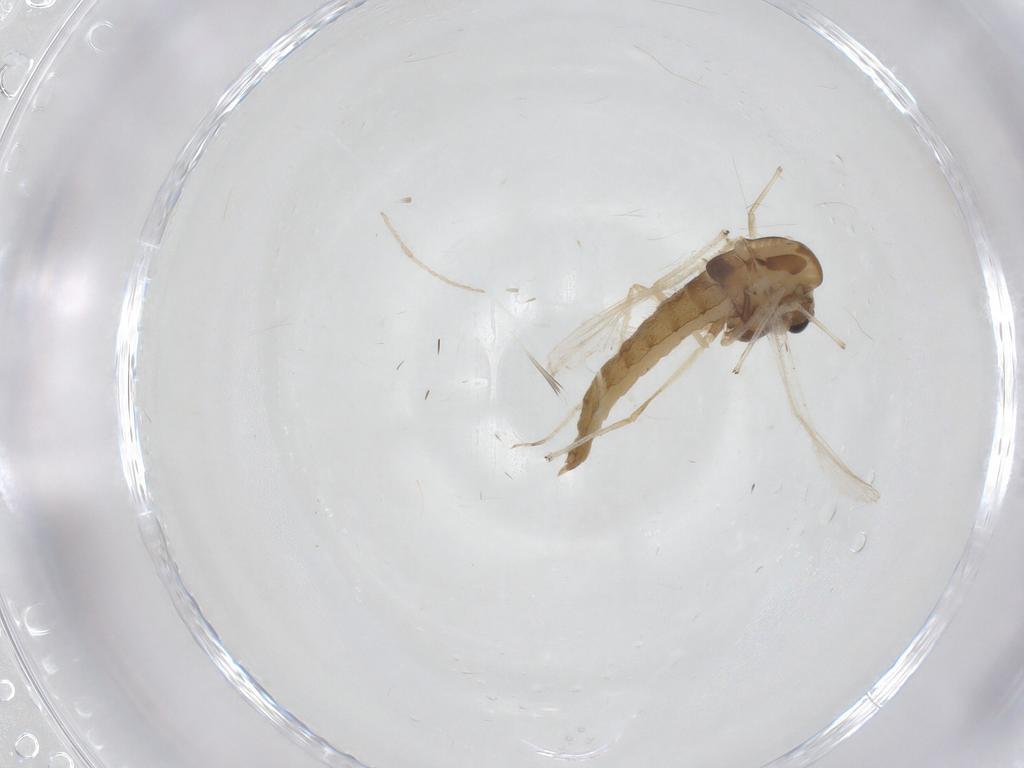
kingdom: Animalia
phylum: Arthropoda
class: Insecta
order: Diptera
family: Chironomidae
